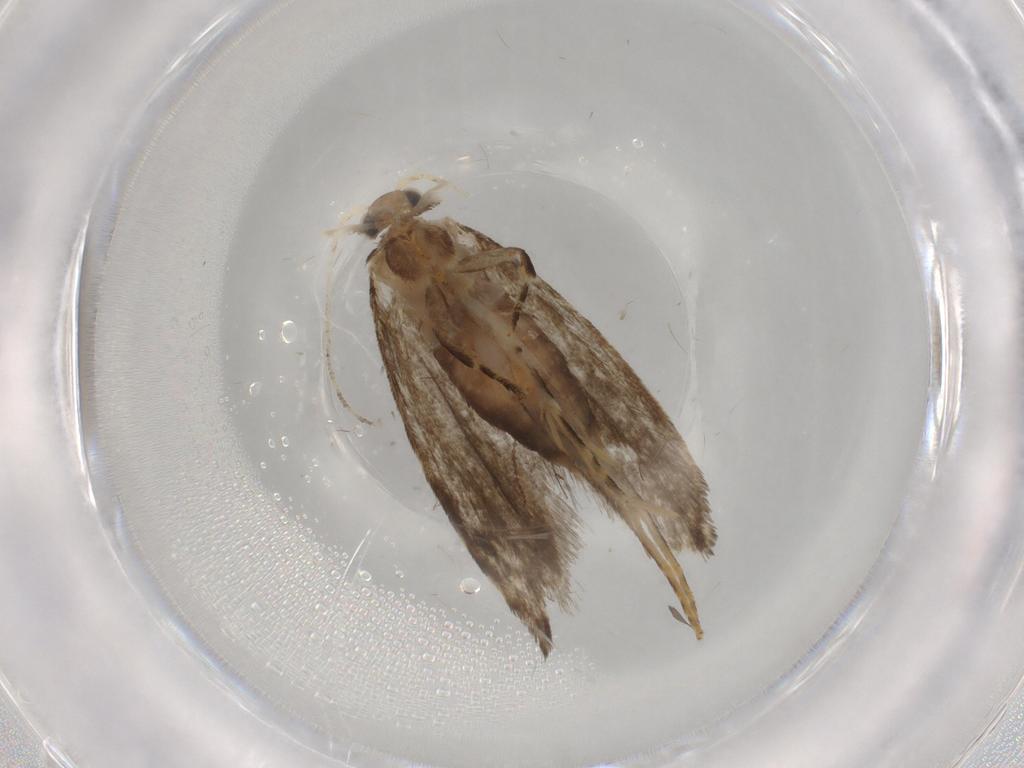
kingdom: Animalia
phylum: Arthropoda
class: Insecta
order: Lepidoptera
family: Tineidae
